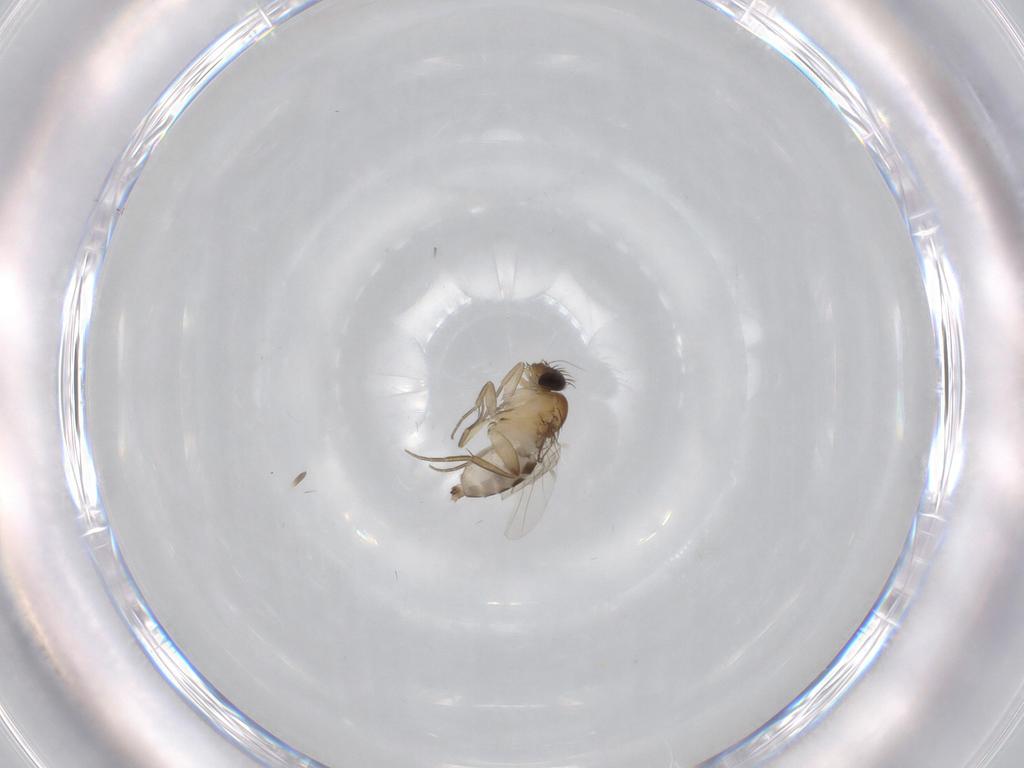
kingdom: Animalia
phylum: Arthropoda
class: Insecta
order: Diptera
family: Phoridae
